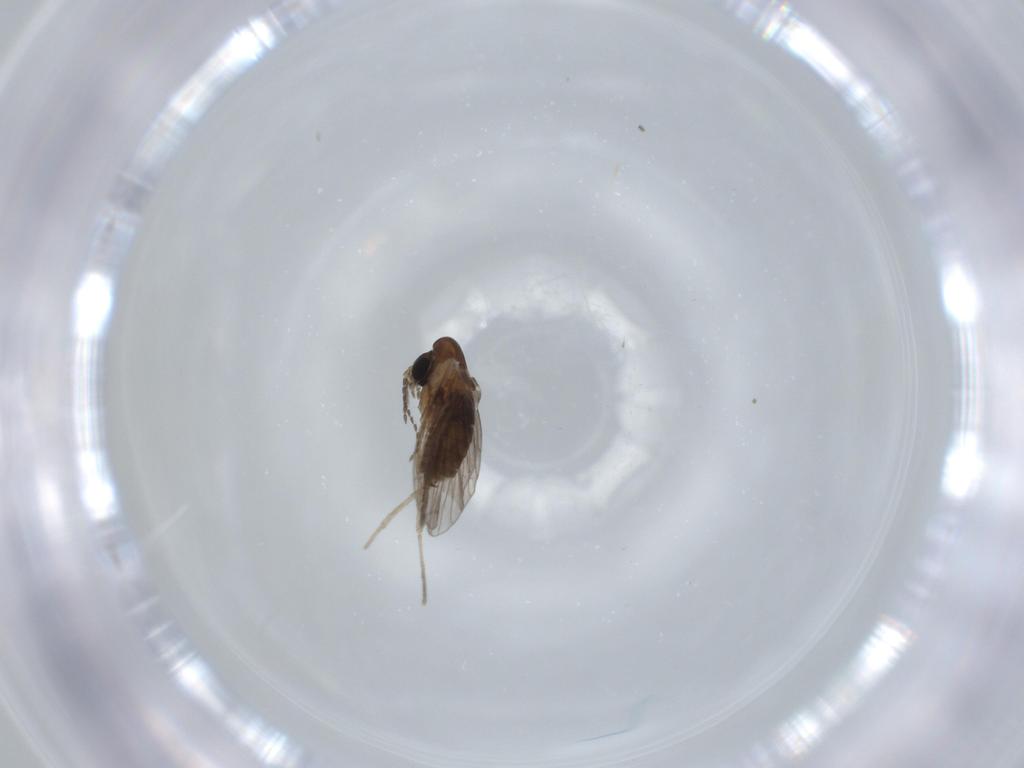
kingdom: Animalia
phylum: Arthropoda
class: Insecta
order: Diptera
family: Psychodidae
